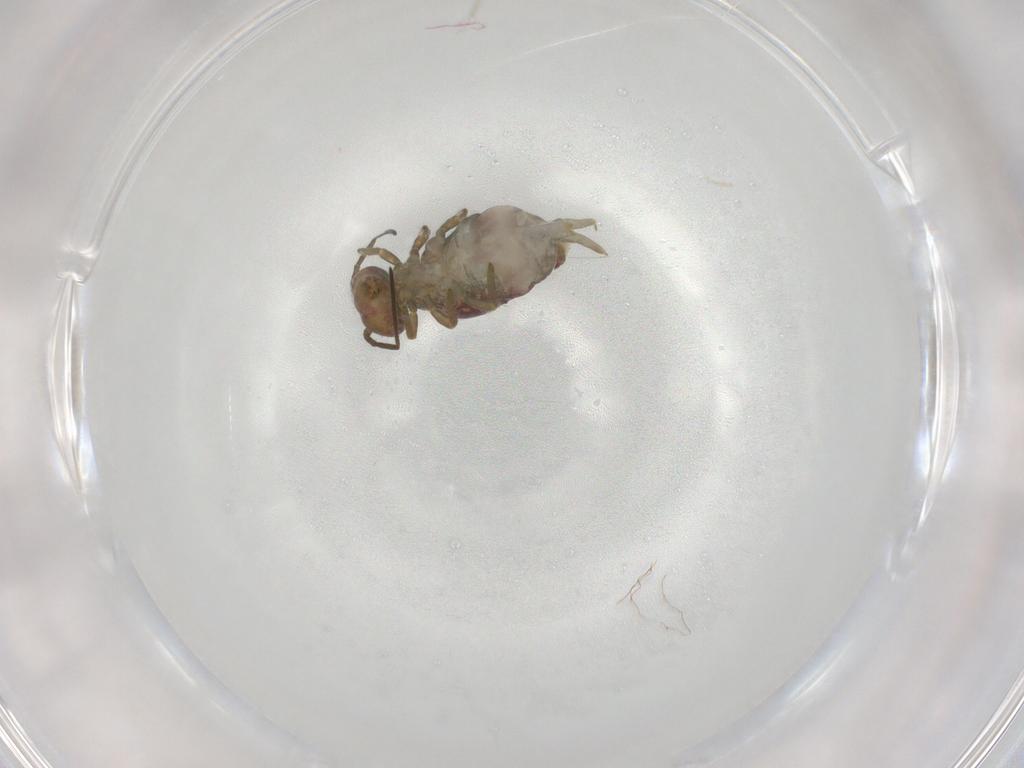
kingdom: Animalia
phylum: Arthropoda
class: Collembola
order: Symphypleona
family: Sminthuridae
